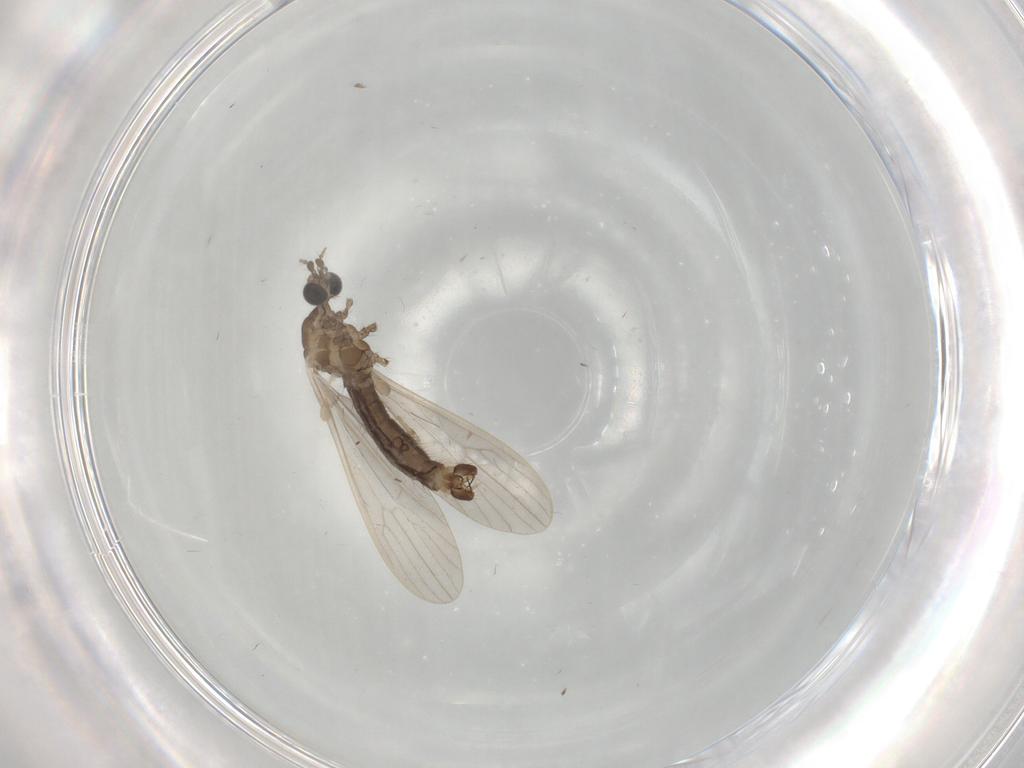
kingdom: Animalia
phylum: Arthropoda
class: Insecta
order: Diptera
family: Limoniidae
